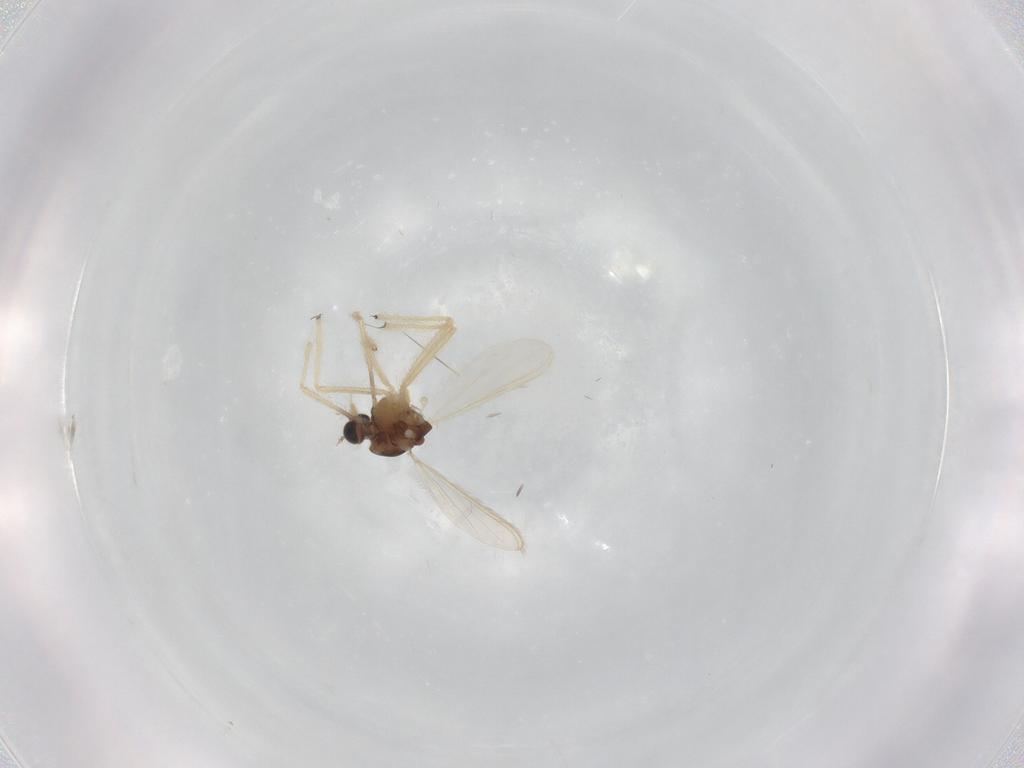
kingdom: Animalia
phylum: Arthropoda
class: Insecta
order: Diptera
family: Chironomidae
